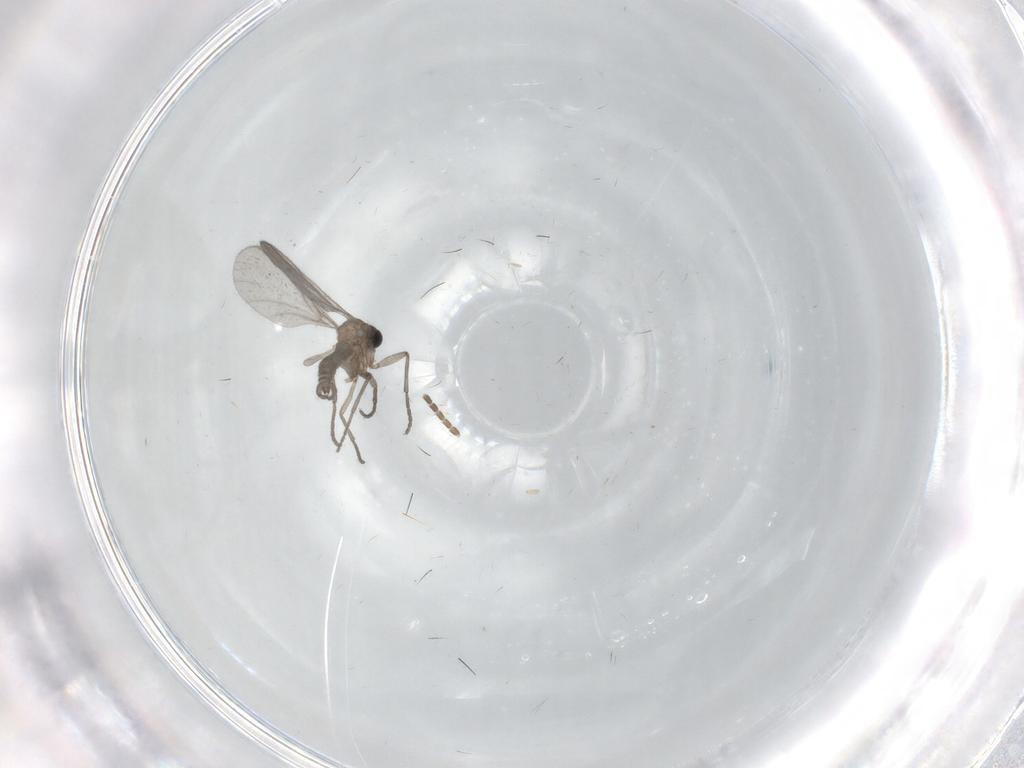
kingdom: Animalia
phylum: Arthropoda
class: Insecta
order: Diptera
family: Sciaridae
